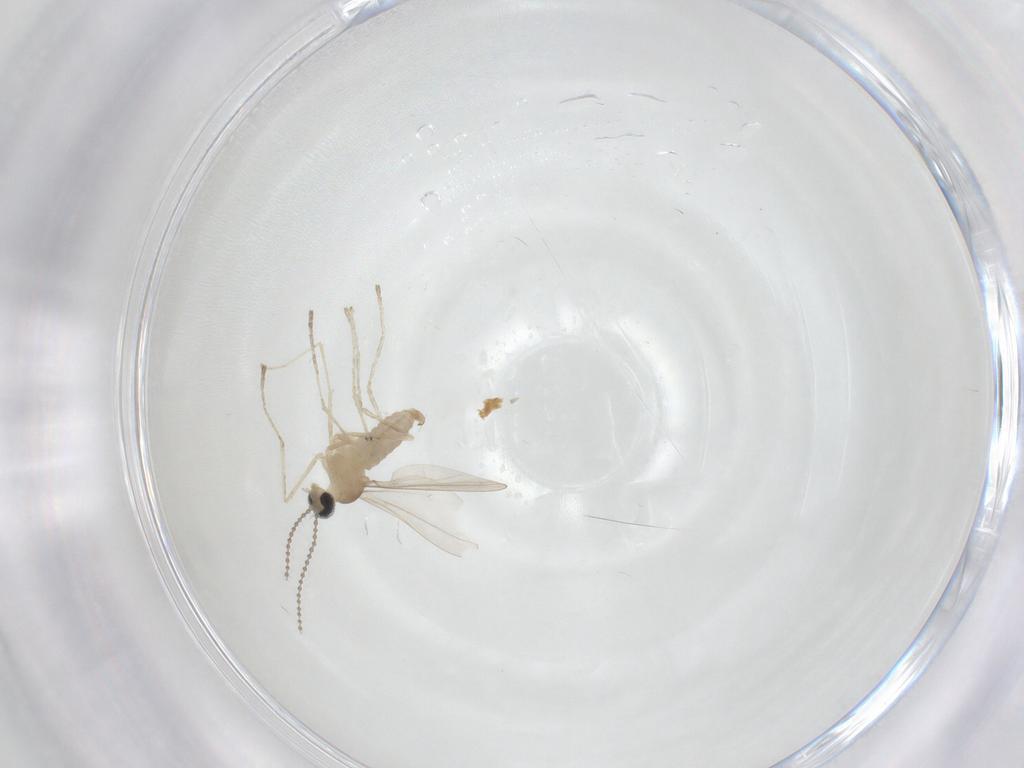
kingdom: Animalia
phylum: Arthropoda
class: Insecta
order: Diptera
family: Cecidomyiidae
